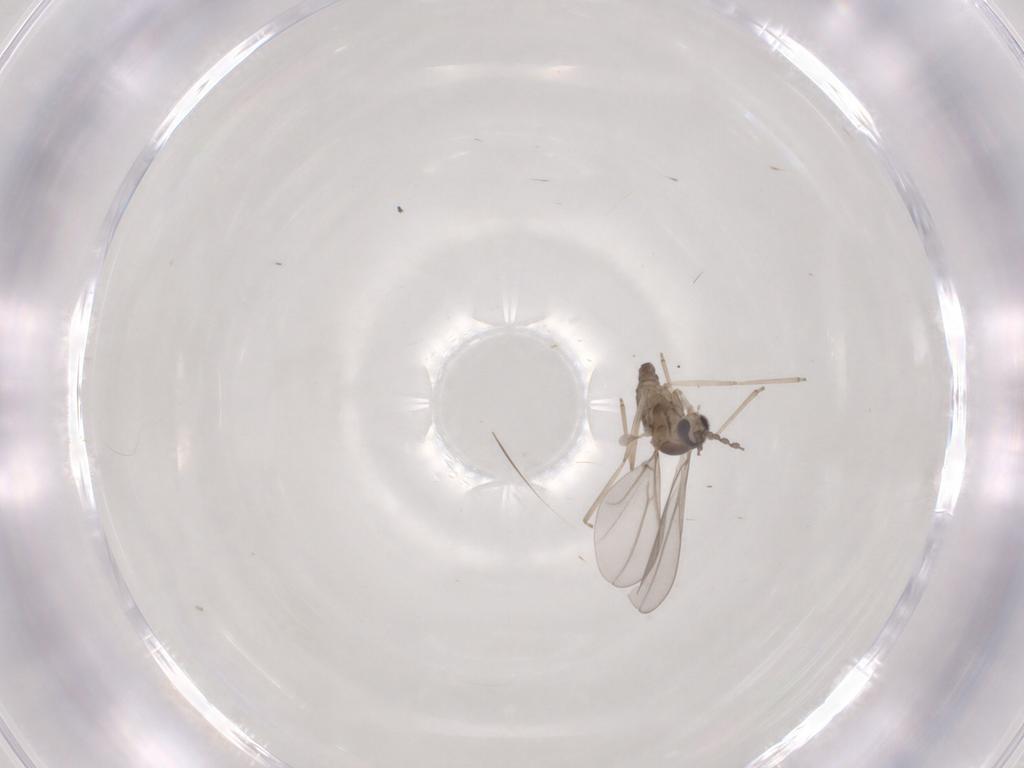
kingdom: Animalia
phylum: Arthropoda
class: Insecta
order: Diptera
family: Cecidomyiidae
